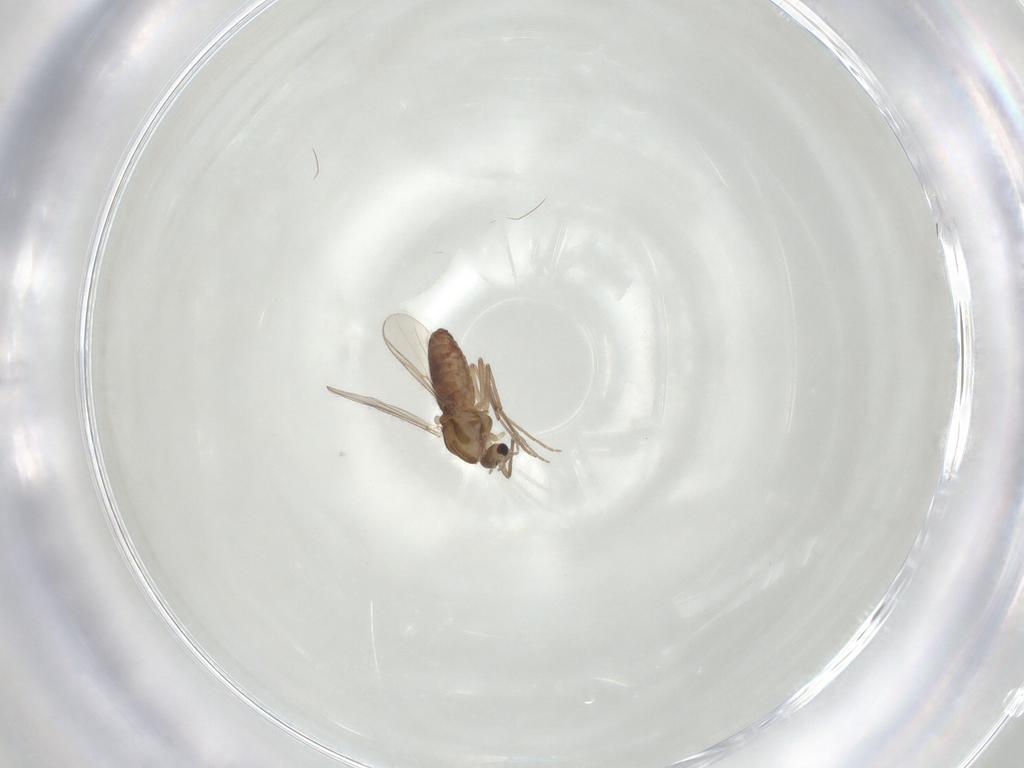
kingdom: Animalia
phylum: Arthropoda
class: Insecta
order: Diptera
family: Chironomidae
